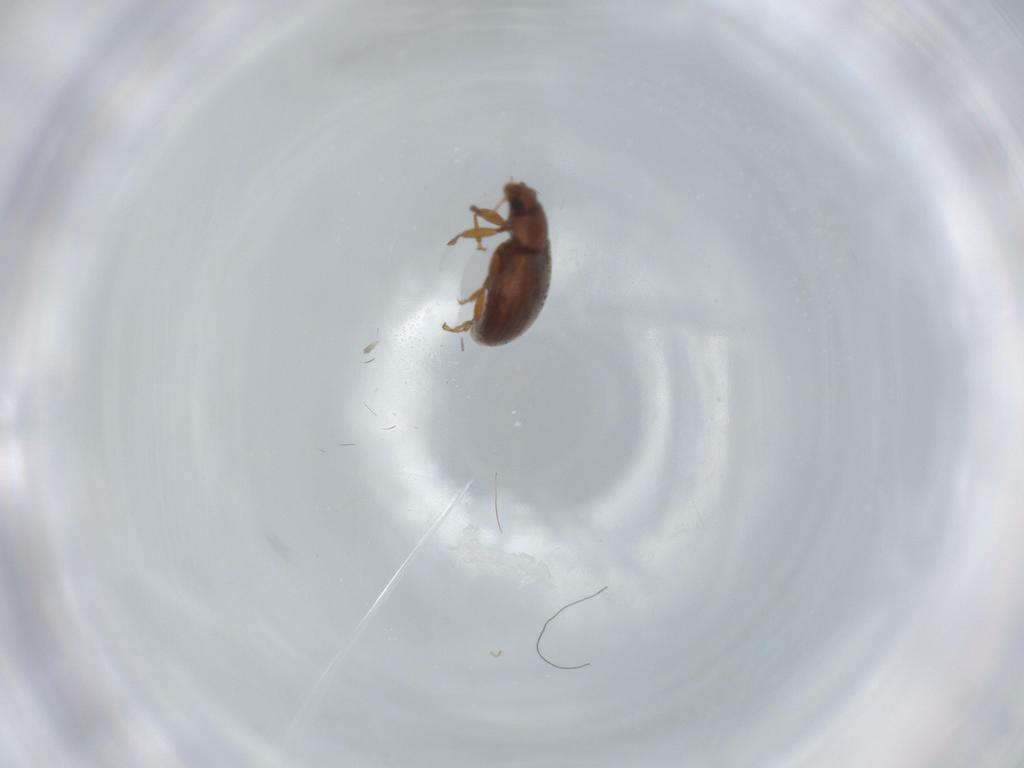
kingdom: Animalia
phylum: Arthropoda
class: Insecta
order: Coleoptera
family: Latridiidae
